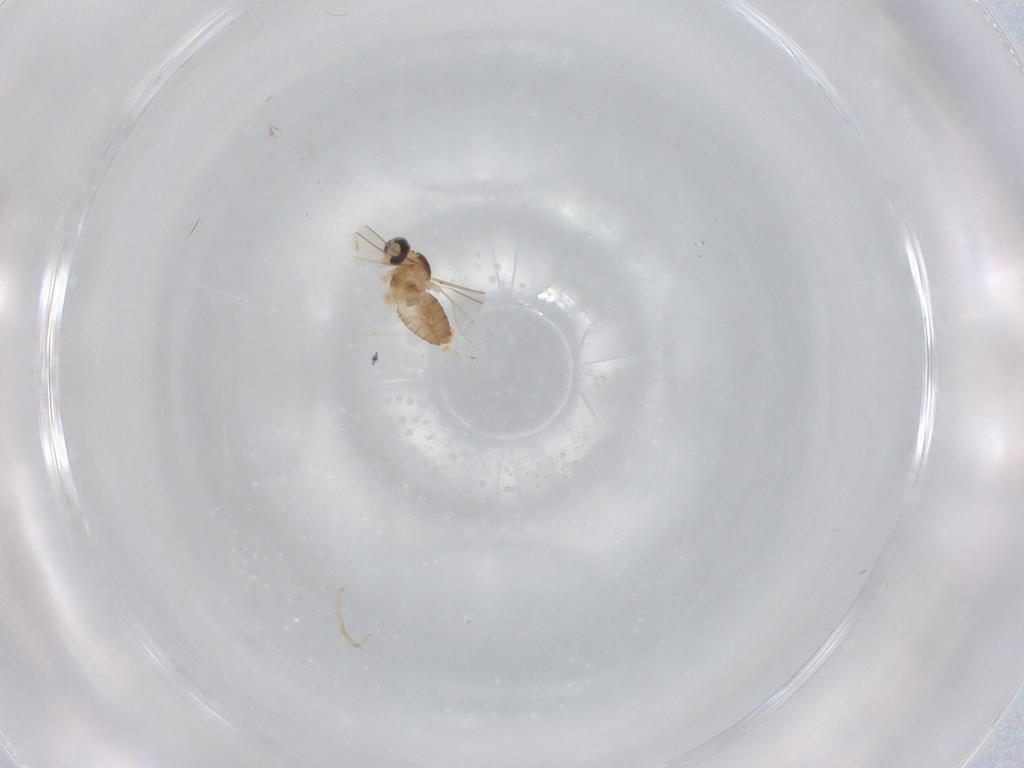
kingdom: Animalia
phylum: Arthropoda
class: Insecta
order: Diptera
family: Cecidomyiidae
